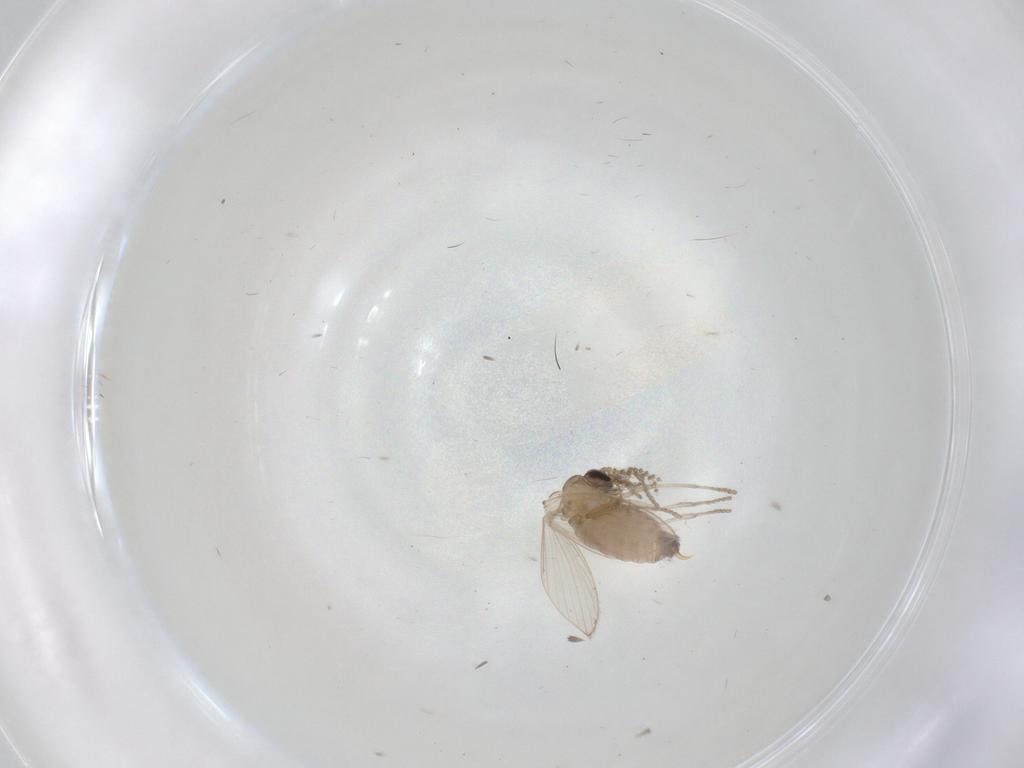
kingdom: Animalia
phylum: Arthropoda
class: Insecta
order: Diptera
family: Psychodidae
